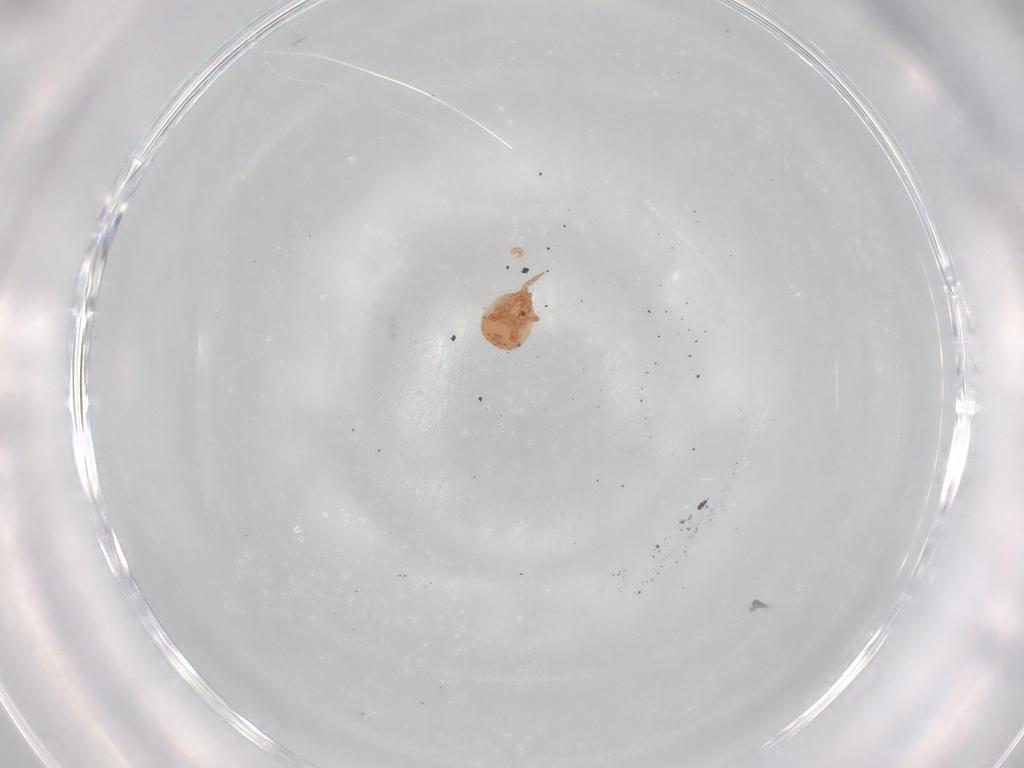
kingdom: Animalia
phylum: Arthropoda
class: Arachnida
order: Mesostigmata
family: Zerconidae
